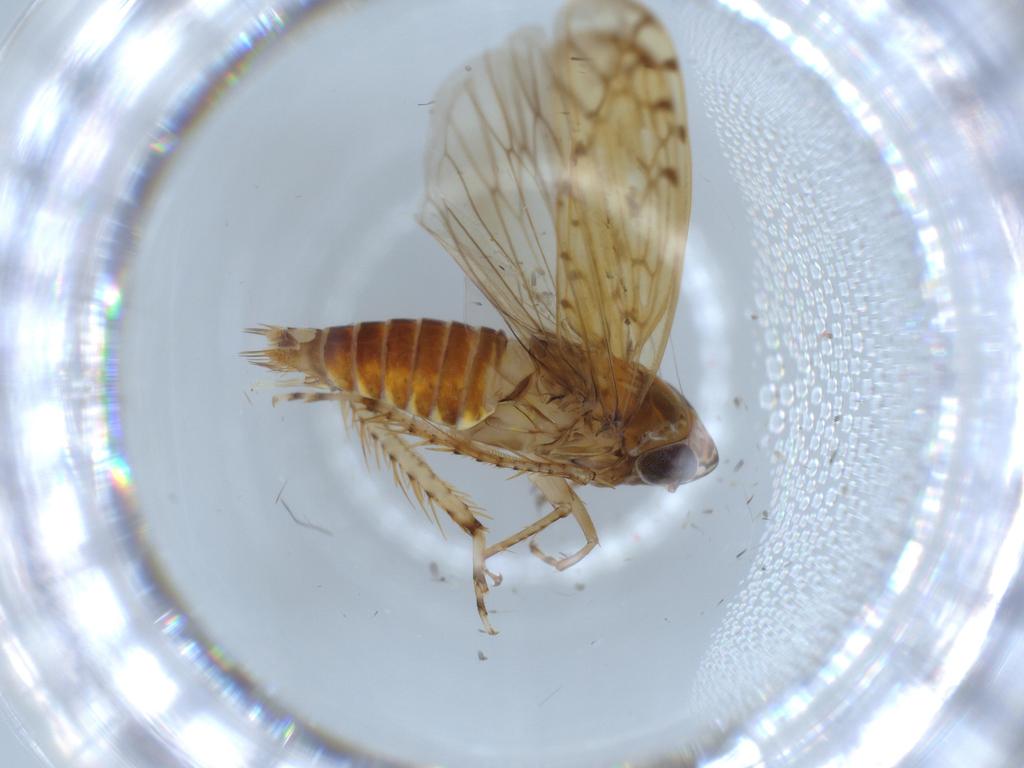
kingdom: Animalia
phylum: Arthropoda
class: Insecta
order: Hemiptera
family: Cicadellidae
